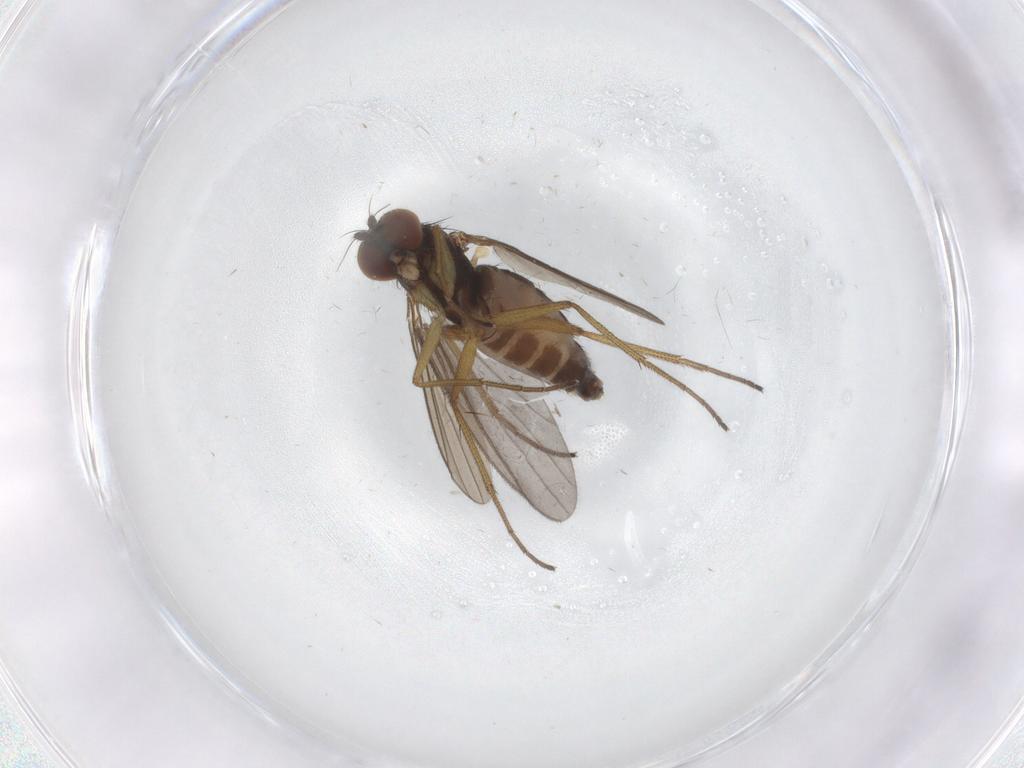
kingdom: Animalia
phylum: Arthropoda
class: Insecta
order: Diptera
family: Dolichopodidae
